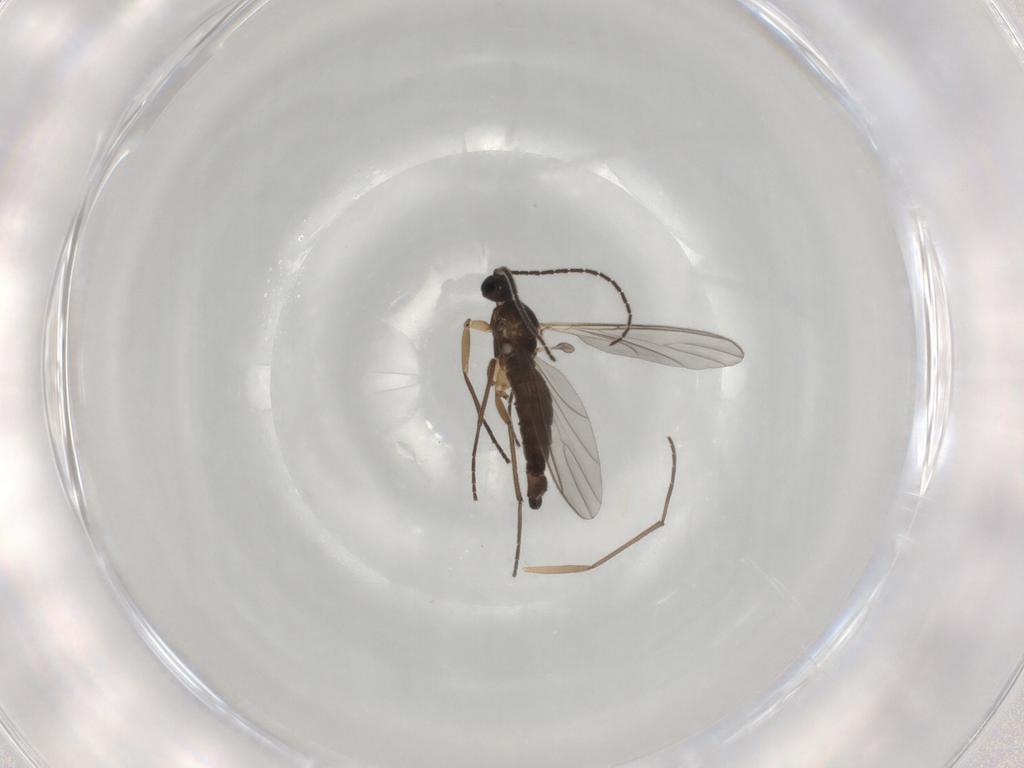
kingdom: Animalia
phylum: Arthropoda
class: Insecta
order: Diptera
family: Sciaridae
